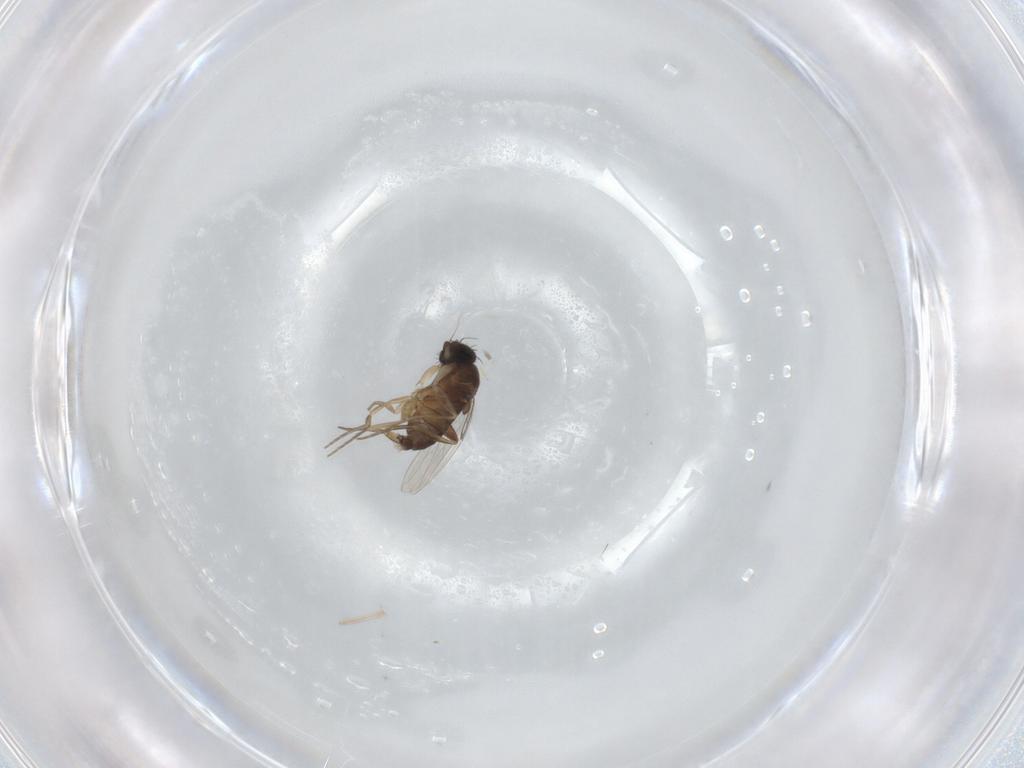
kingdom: Animalia
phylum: Arthropoda
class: Insecta
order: Diptera
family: Phoridae
